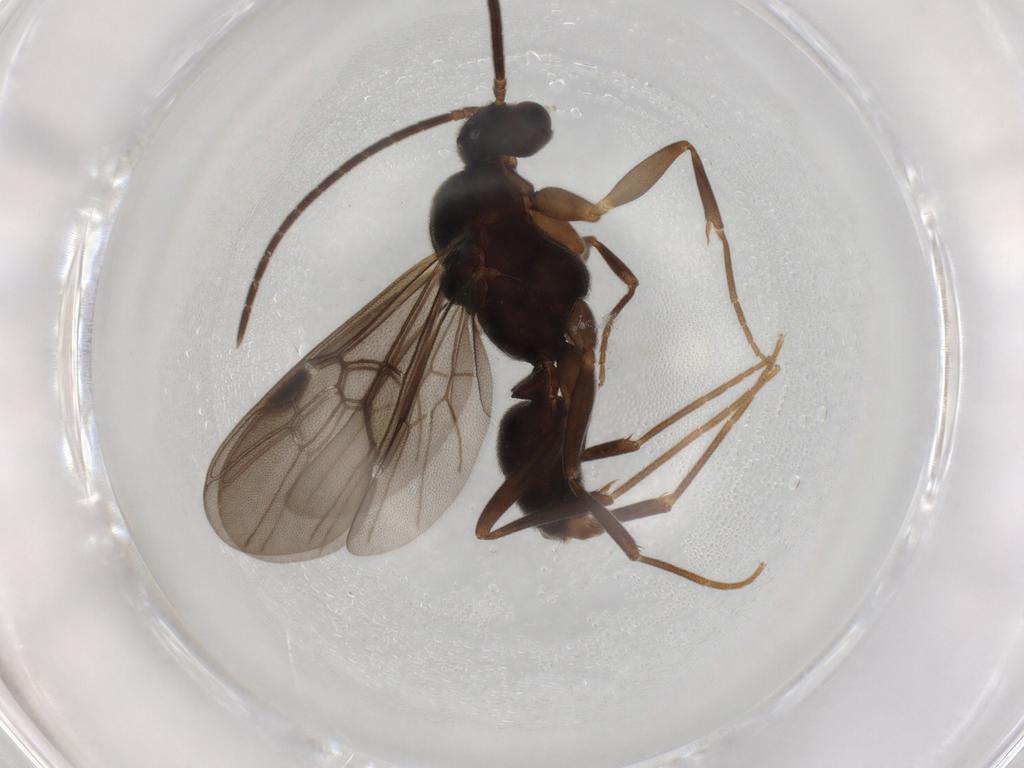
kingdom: Animalia
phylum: Arthropoda
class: Insecta
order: Hymenoptera
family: Formicidae
